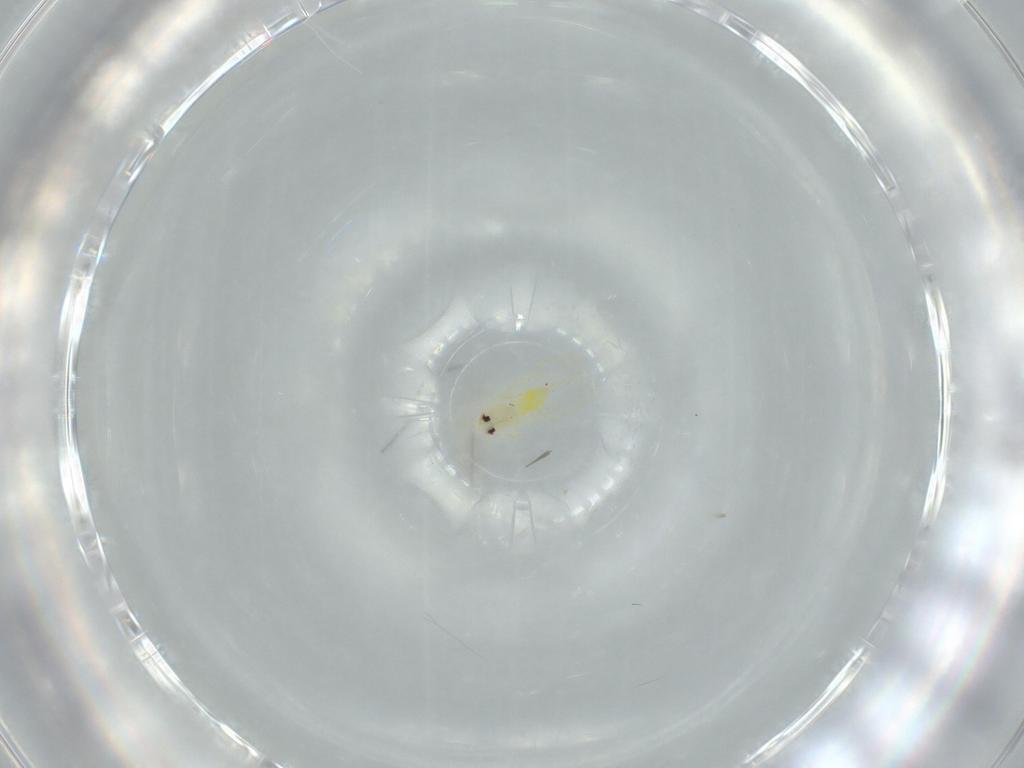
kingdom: Animalia
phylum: Arthropoda
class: Insecta
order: Hemiptera
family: Aleyrodidae
